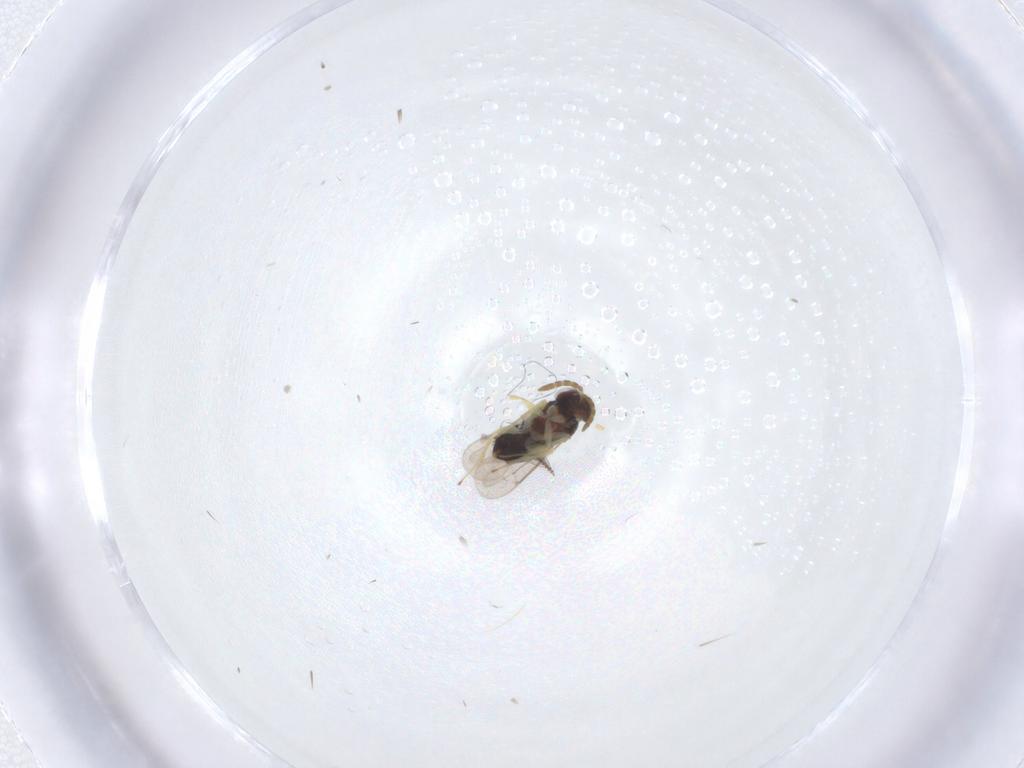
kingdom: Animalia
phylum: Arthropoda
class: Insecta
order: Hymenoptera
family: Aphelinidae
